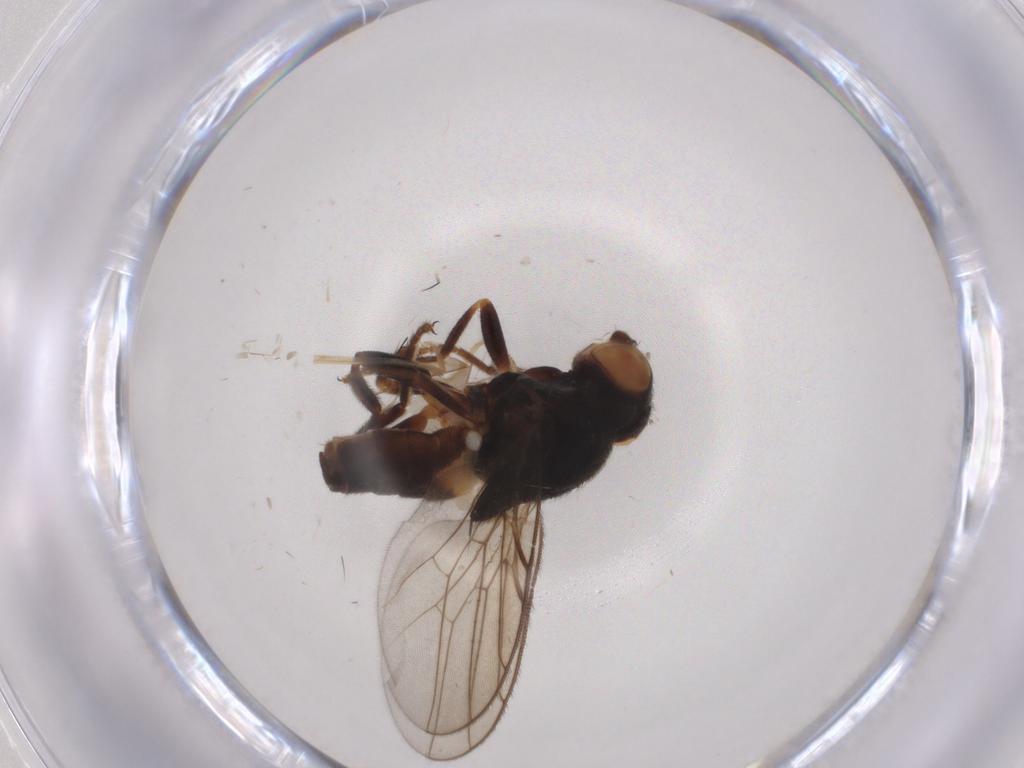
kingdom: Animalia
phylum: Arthropoda
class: Insecta
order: Diptera
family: Chloropidae
